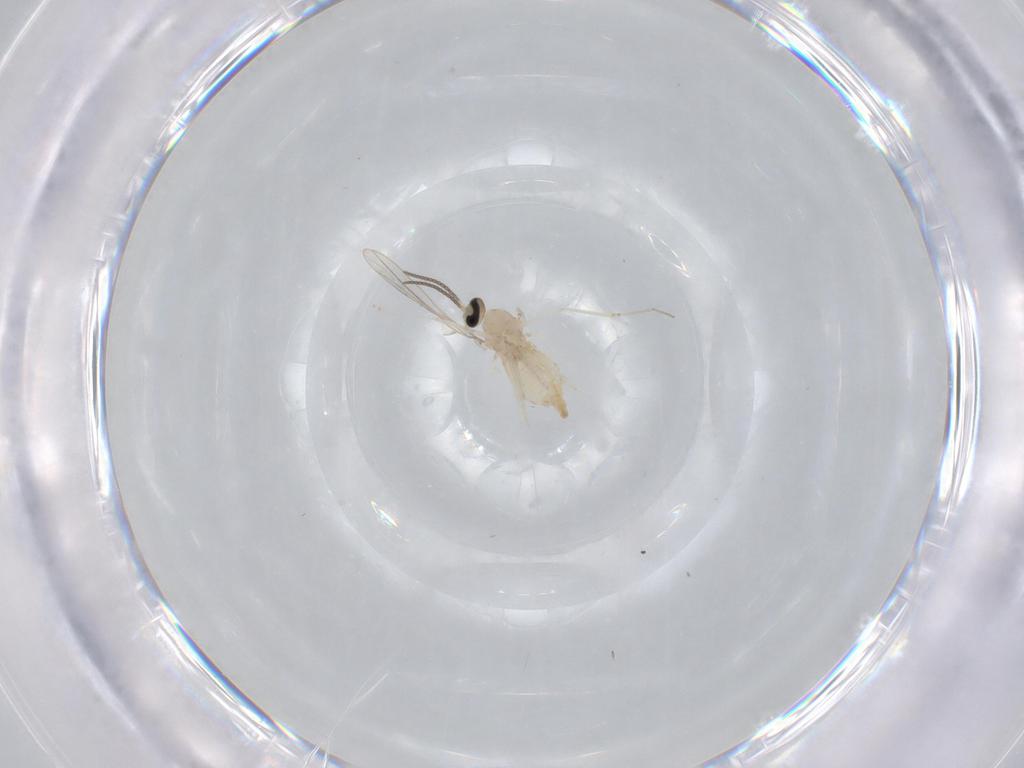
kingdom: Animalia
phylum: Arthropoda
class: Insecta
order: Diptera
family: Cecidomyiidae
